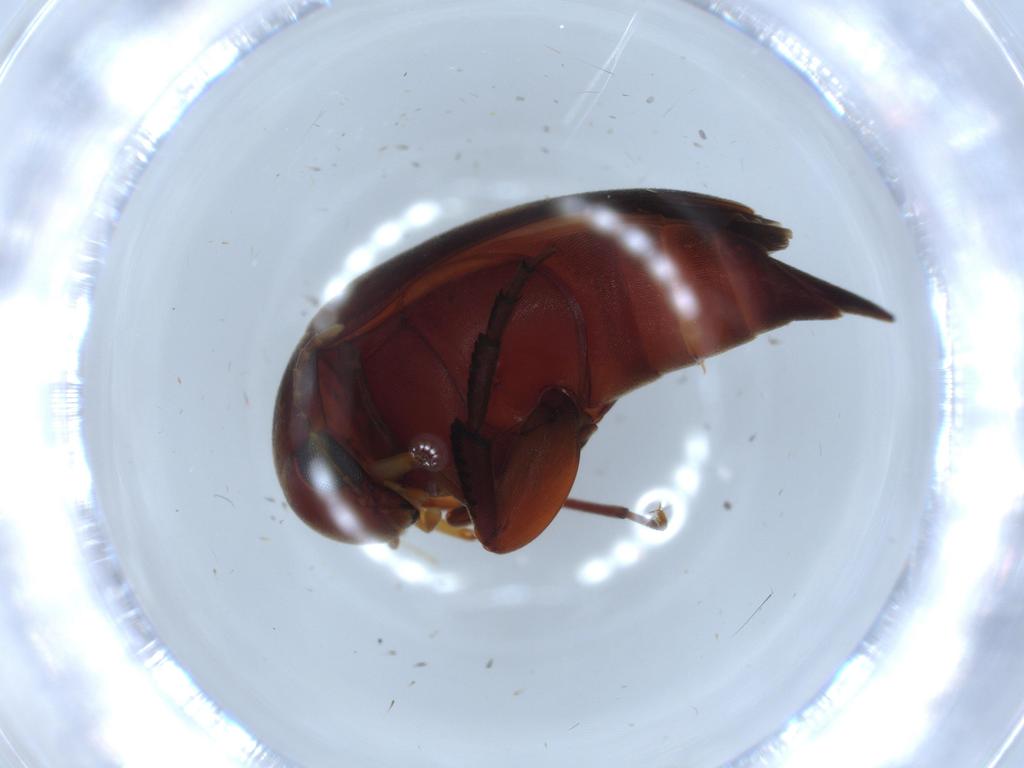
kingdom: Animalia
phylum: Arthropoda
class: Insecta
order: Coleoptera
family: Mordellidae
